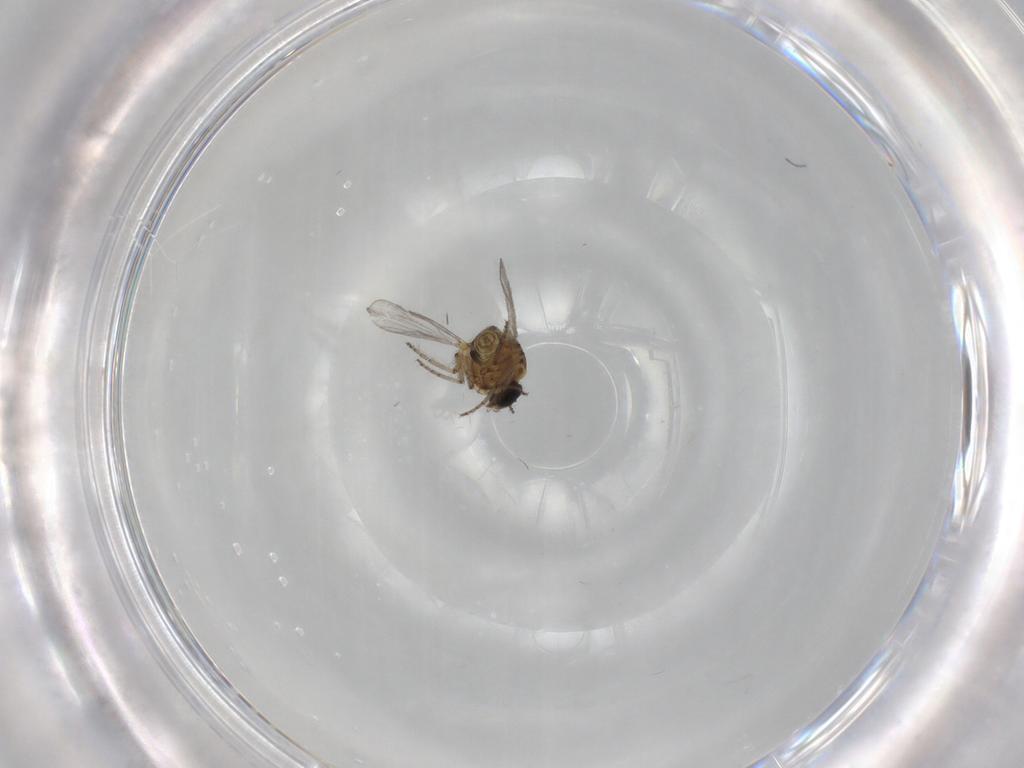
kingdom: Animalia
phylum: Arthropoda
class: Insecta
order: Diptera
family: Ceratopogonidae
